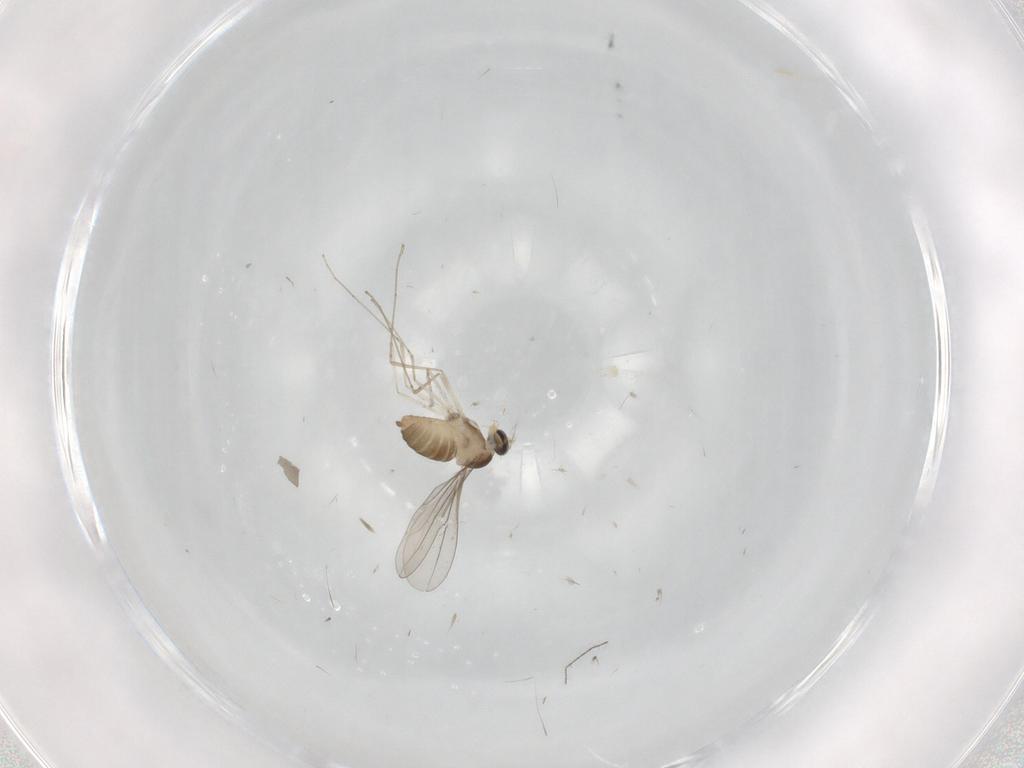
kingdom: Animalia
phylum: Arthropoda
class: Insecta
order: Diptera
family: Cecidomyiidae
